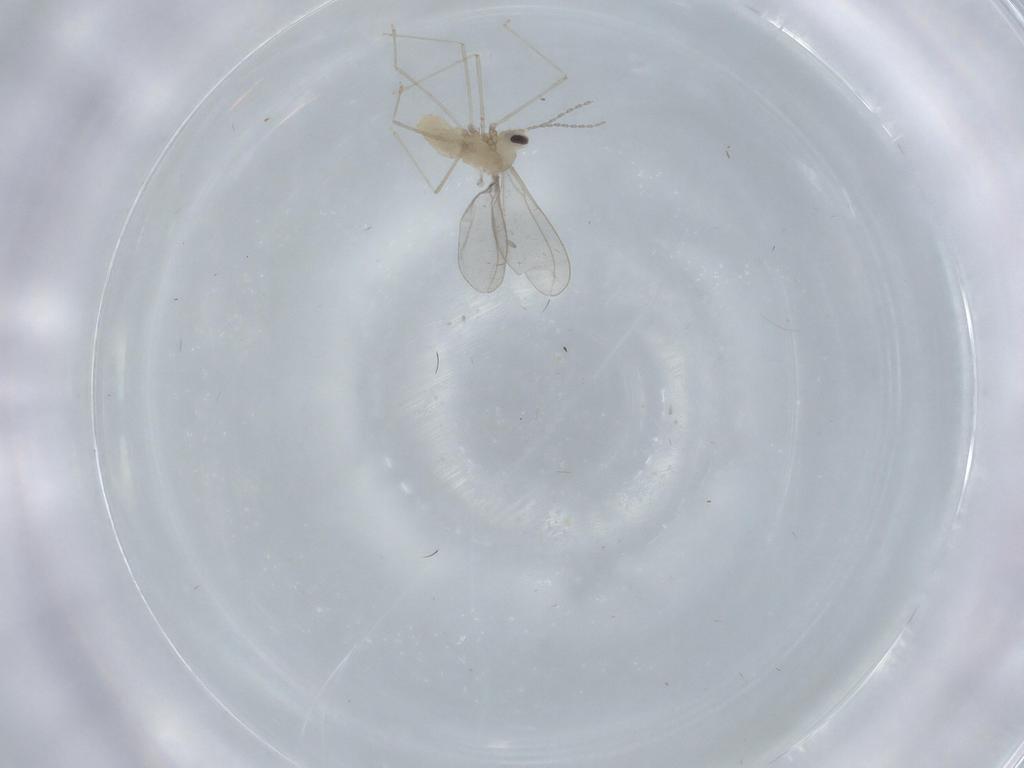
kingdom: Animalia
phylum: Arthropoda
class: Insecta
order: Diptera
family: Cecidomyiidae
